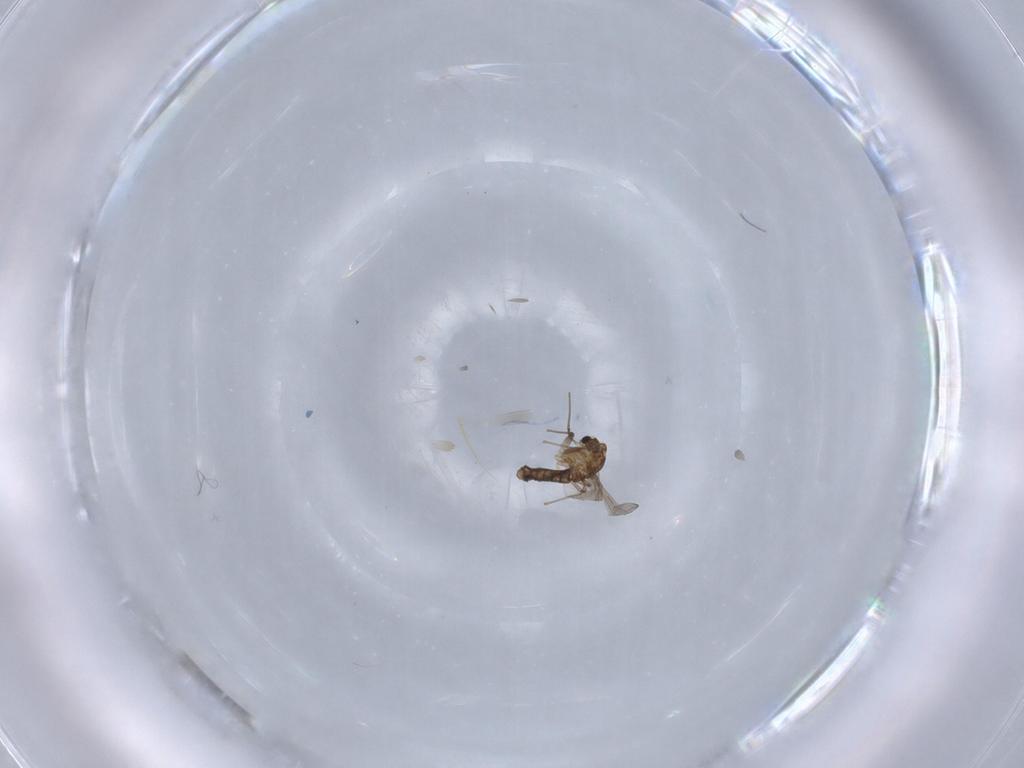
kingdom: Animalia
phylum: Arthropoda
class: Insecta
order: Diptera
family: Chironomidae
